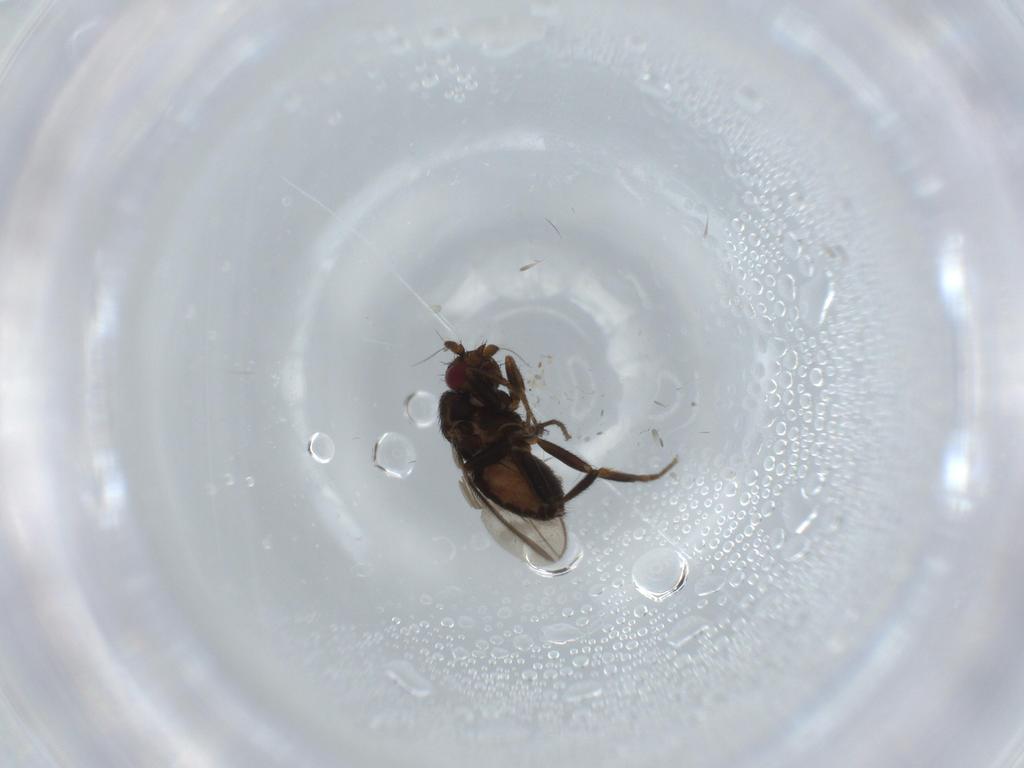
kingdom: Animalia
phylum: Arthropoda
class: Insecta
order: Diptera
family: Sphaeroceridae
